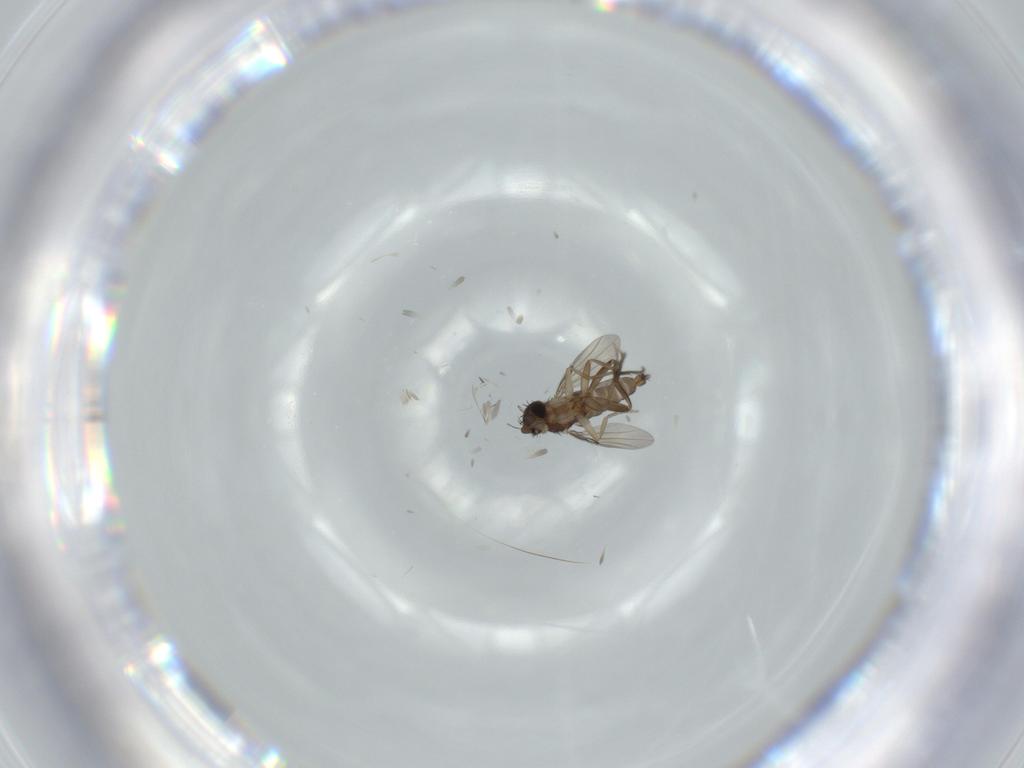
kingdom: Animalia
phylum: Arthropoda
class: Insecta
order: Diptera
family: Phoridae
